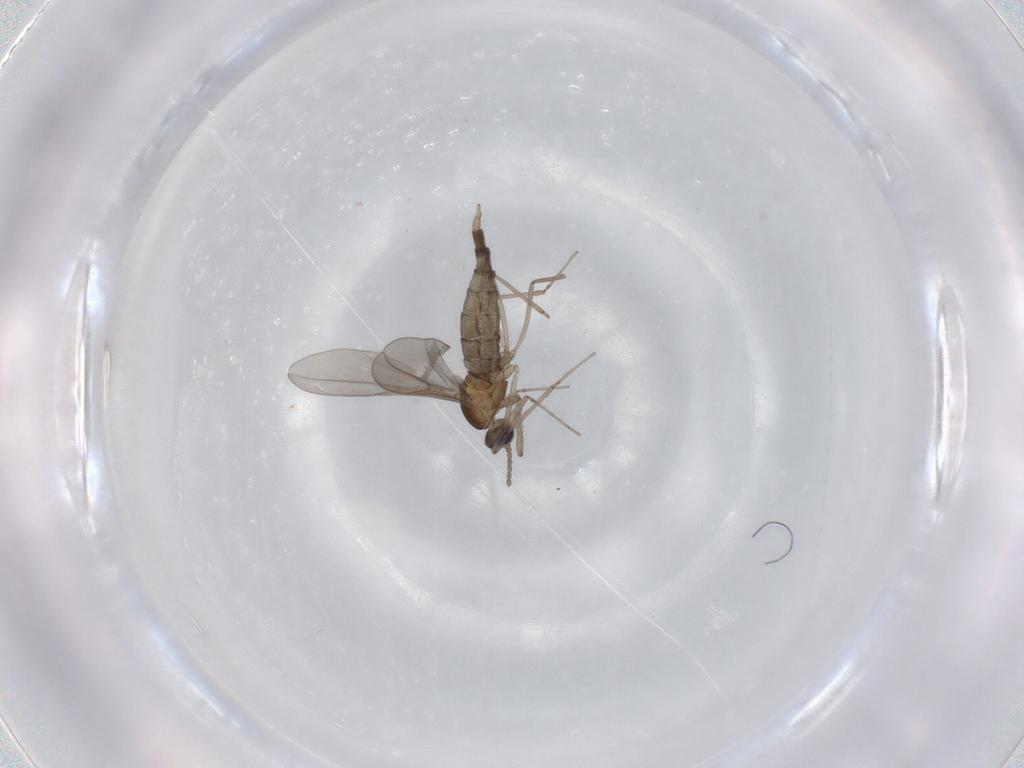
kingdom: Animalia
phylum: Arthropoda
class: Insecta
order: Diptera
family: Cecidomyiidae
